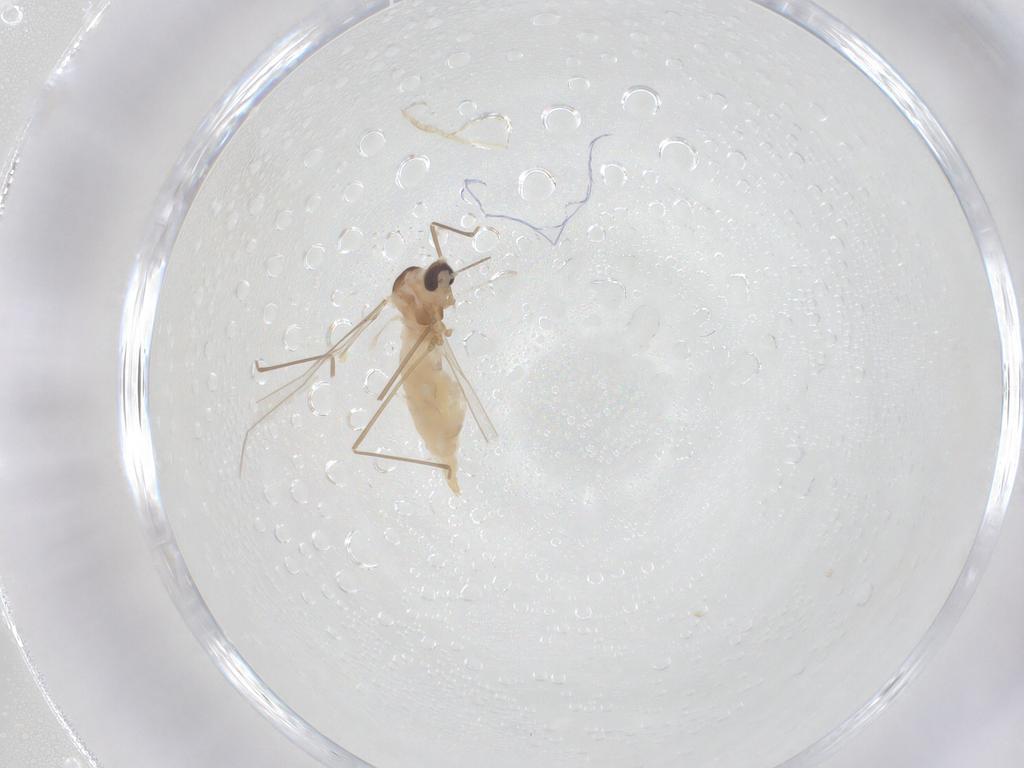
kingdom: Animalia
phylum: Arthropoda
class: Insecta
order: Diptera
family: Cecidomyiidae
